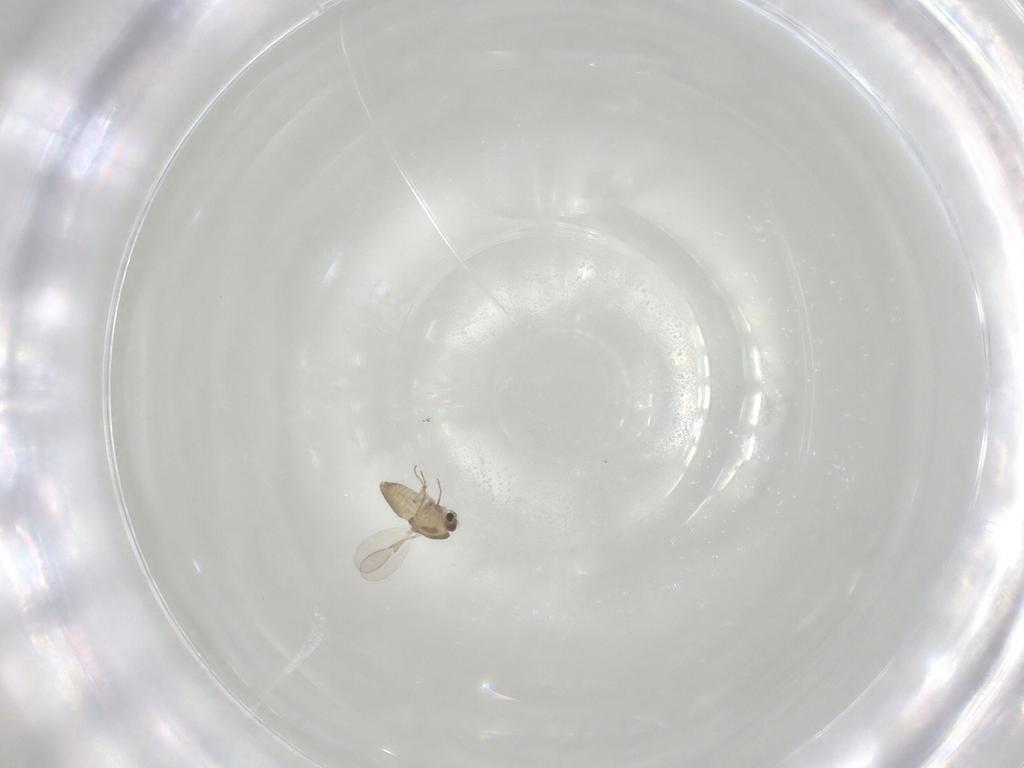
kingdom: Animalia
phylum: Arthropoda
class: Insecta
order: Diptera
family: Chironomidae
